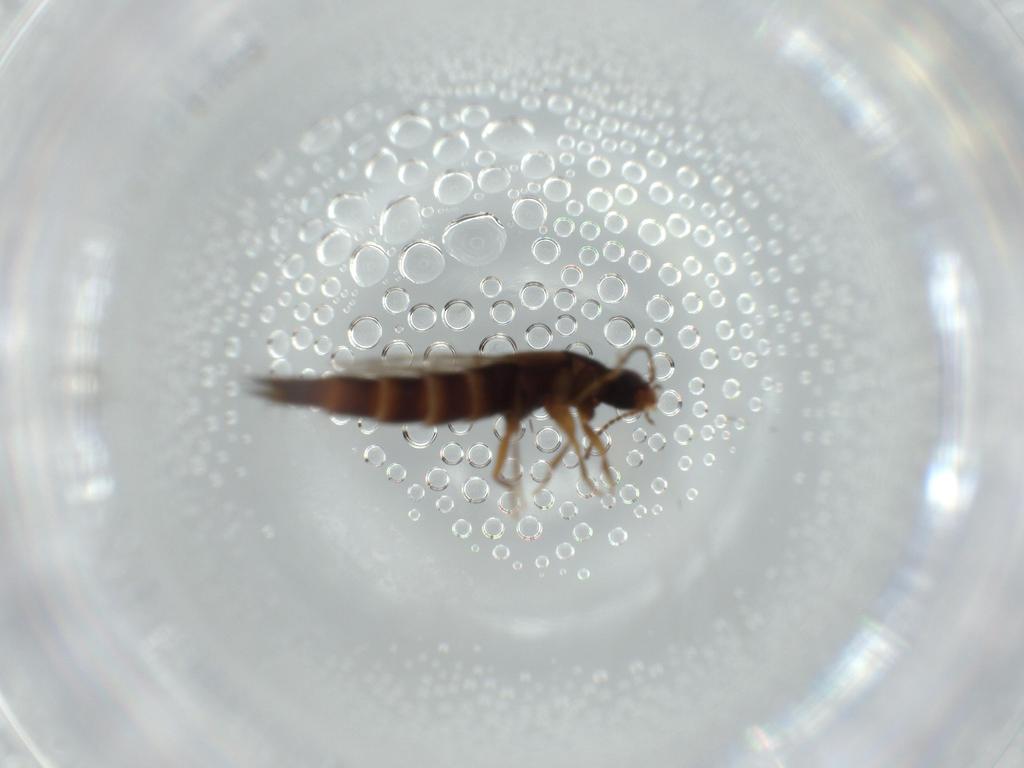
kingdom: Animalia
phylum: Arthropoda
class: Insecta
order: Coleoptera
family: Staphylinidae
